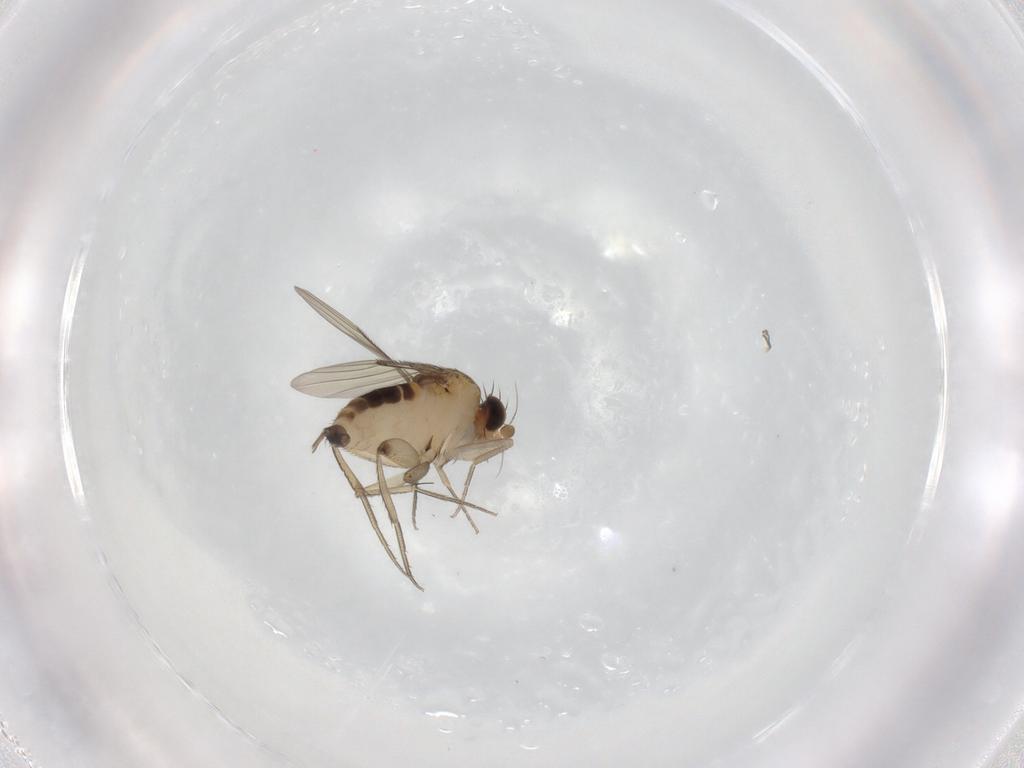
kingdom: Animalia
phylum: Arthropoda
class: Insecta
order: Diptera
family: Phoridae
